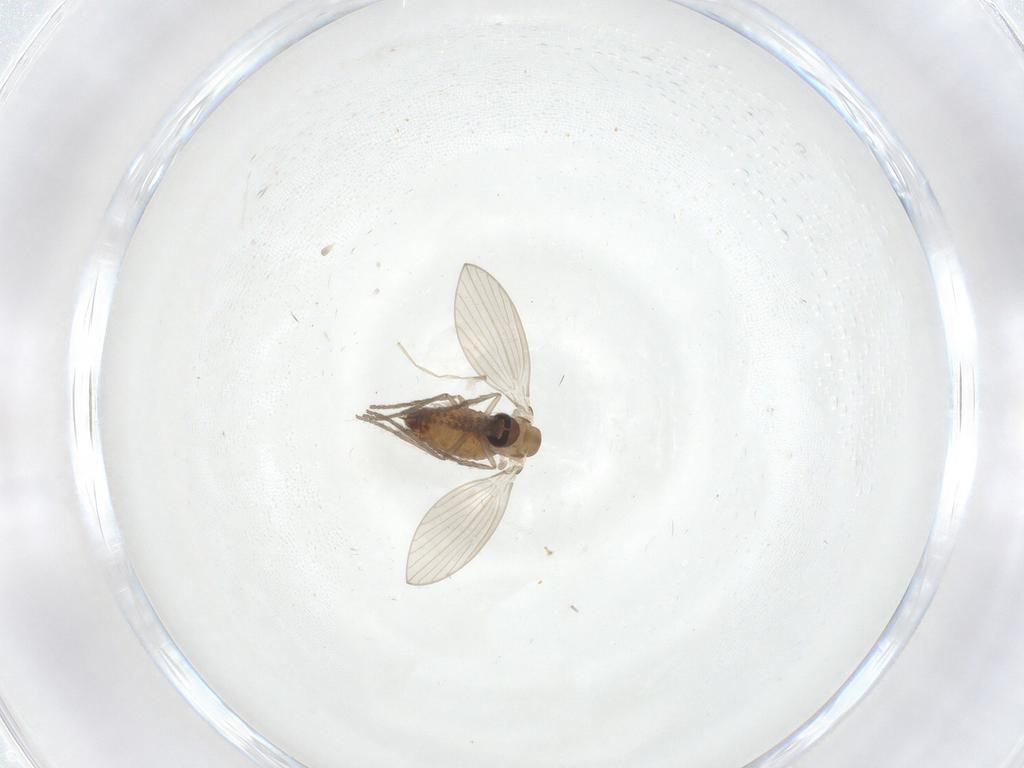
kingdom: Animalia
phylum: Arthropoda
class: Insecta
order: Diptera
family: Psychodidae
